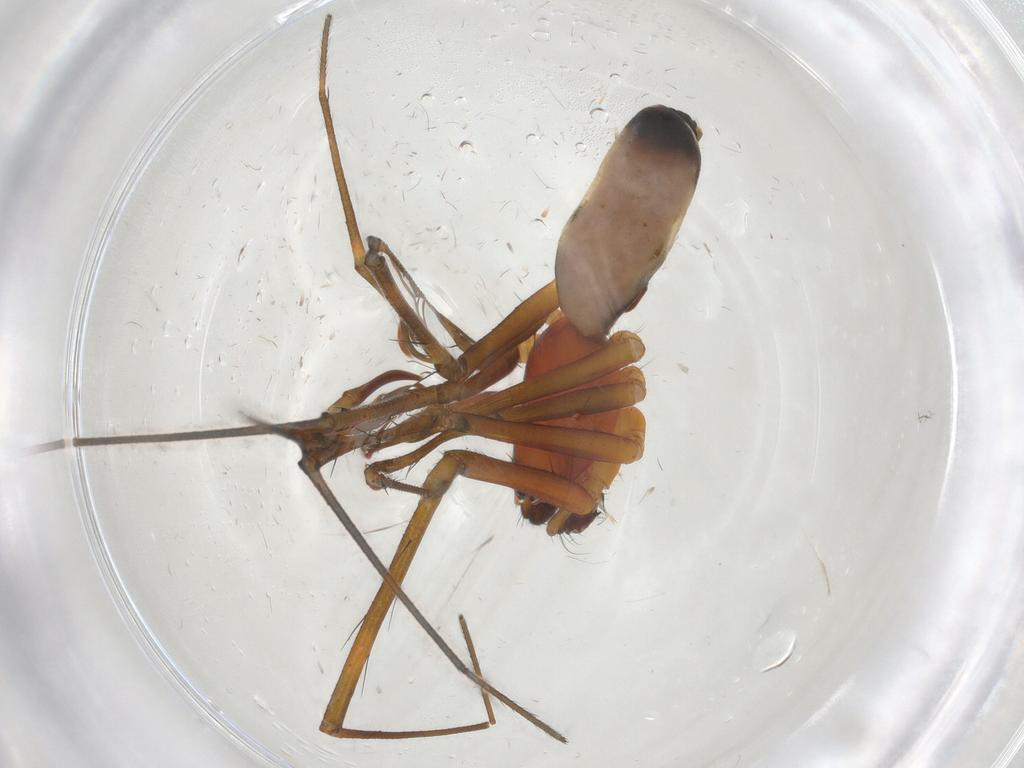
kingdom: Animalia
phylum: Arthropoda
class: Arachnida
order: Araneae
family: Linyphiidae
